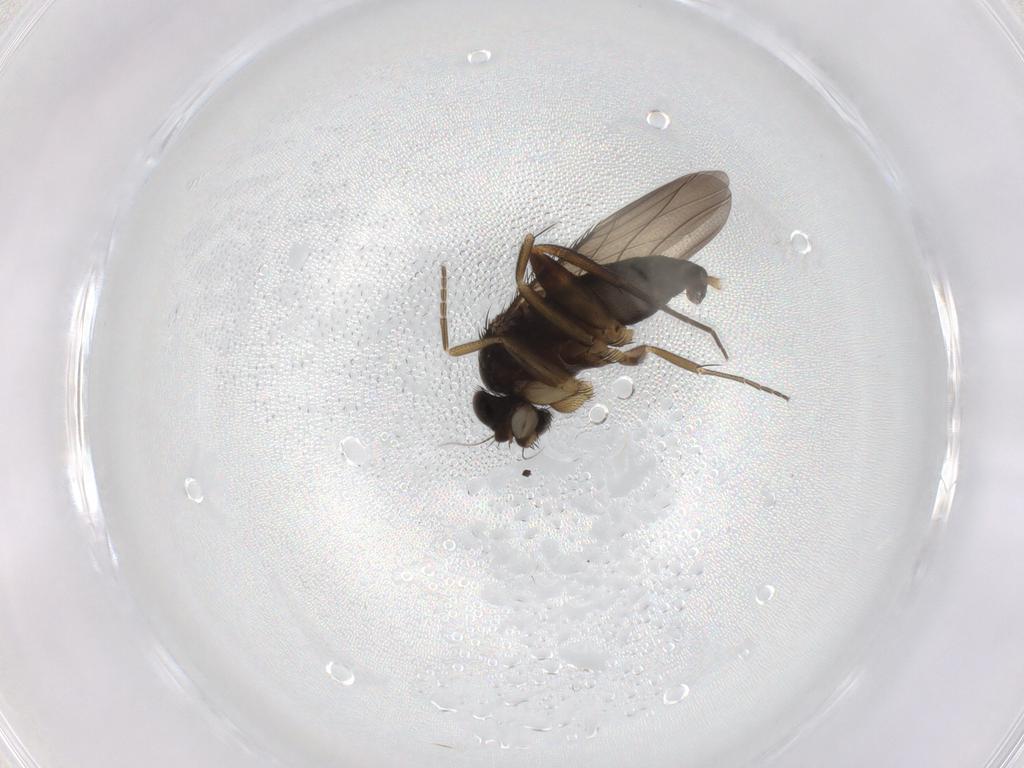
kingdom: Animalia
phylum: Arthropoda
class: Insecta
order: Diptera
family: Phoridae
